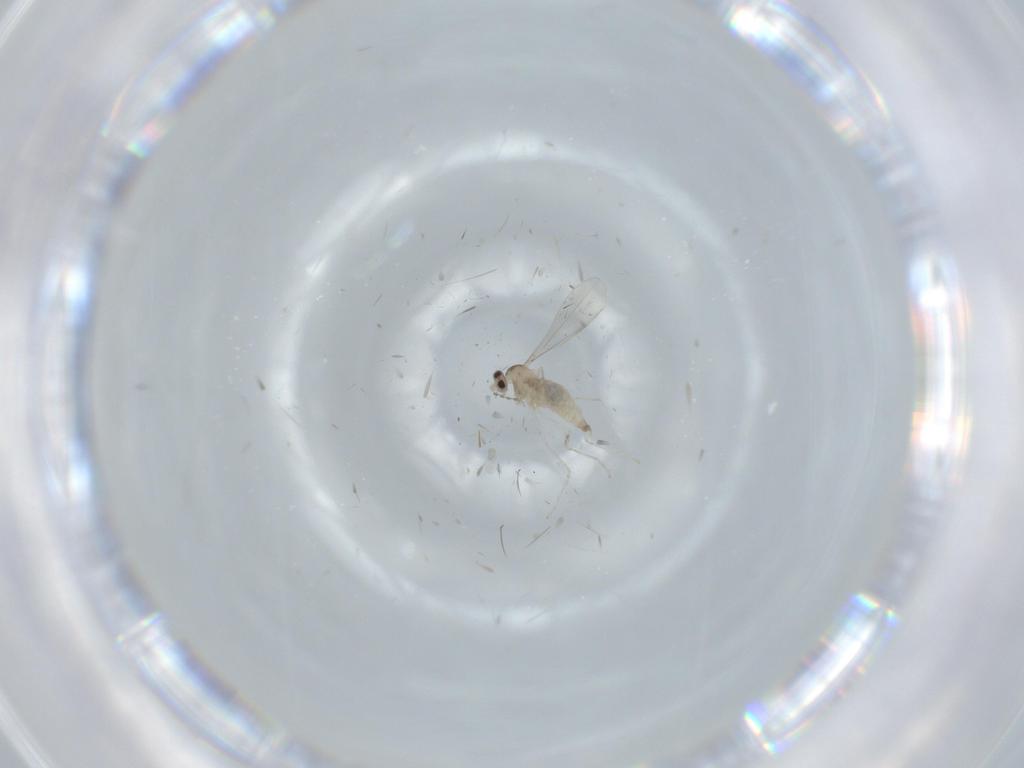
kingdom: Animalia
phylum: Arthropoda
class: Insecta
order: Diptera
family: Cecidomyiidae
